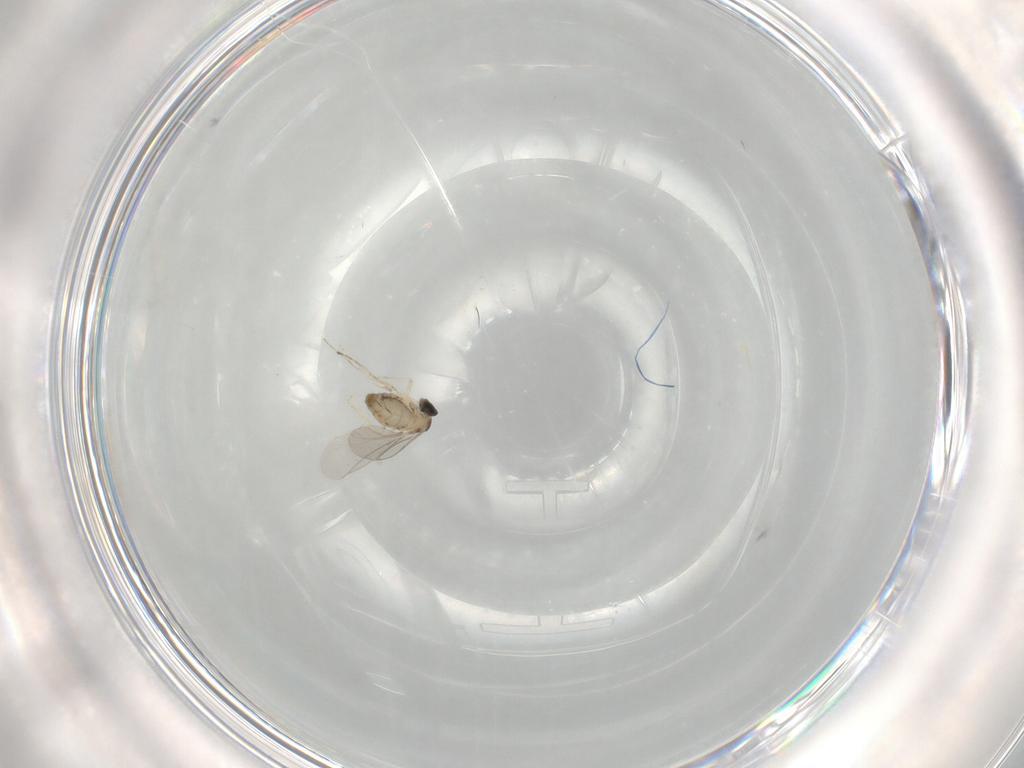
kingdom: Animalia
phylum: Arthropoda
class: Insecta
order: Diptera
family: Cecidomyiidae
